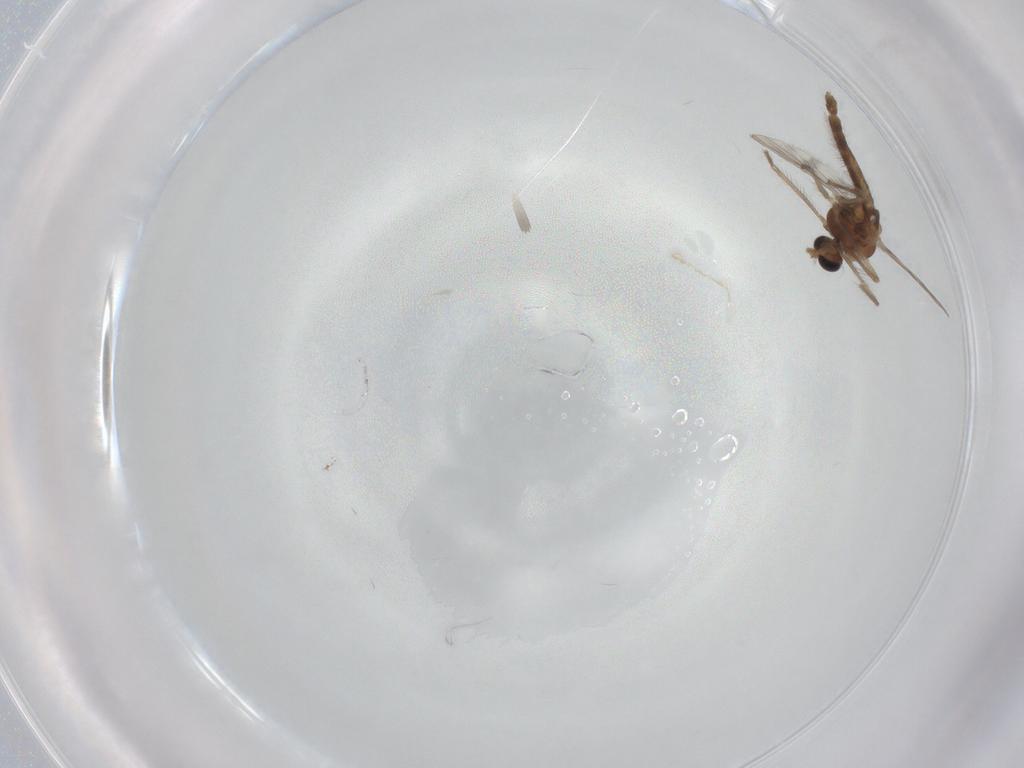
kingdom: Animalia
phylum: Arthropoda
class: Insecta
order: Diptera
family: Chironomidae
